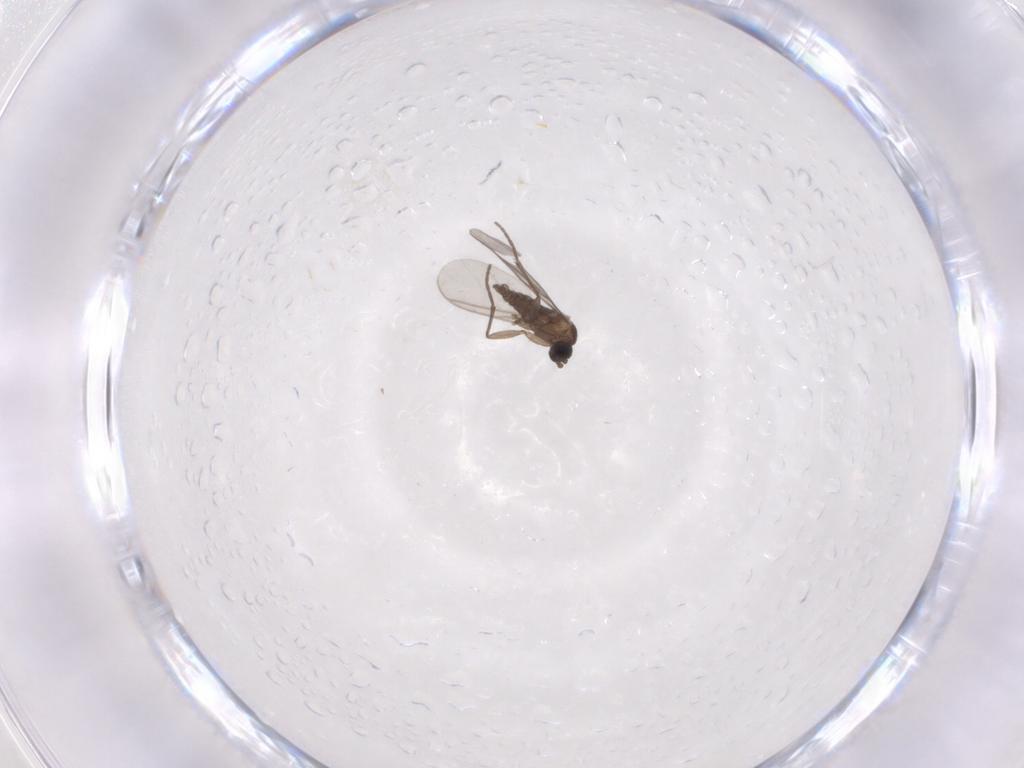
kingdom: Animalia
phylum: Arthropoda
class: Insecta
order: Diptera
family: Sciaridae
